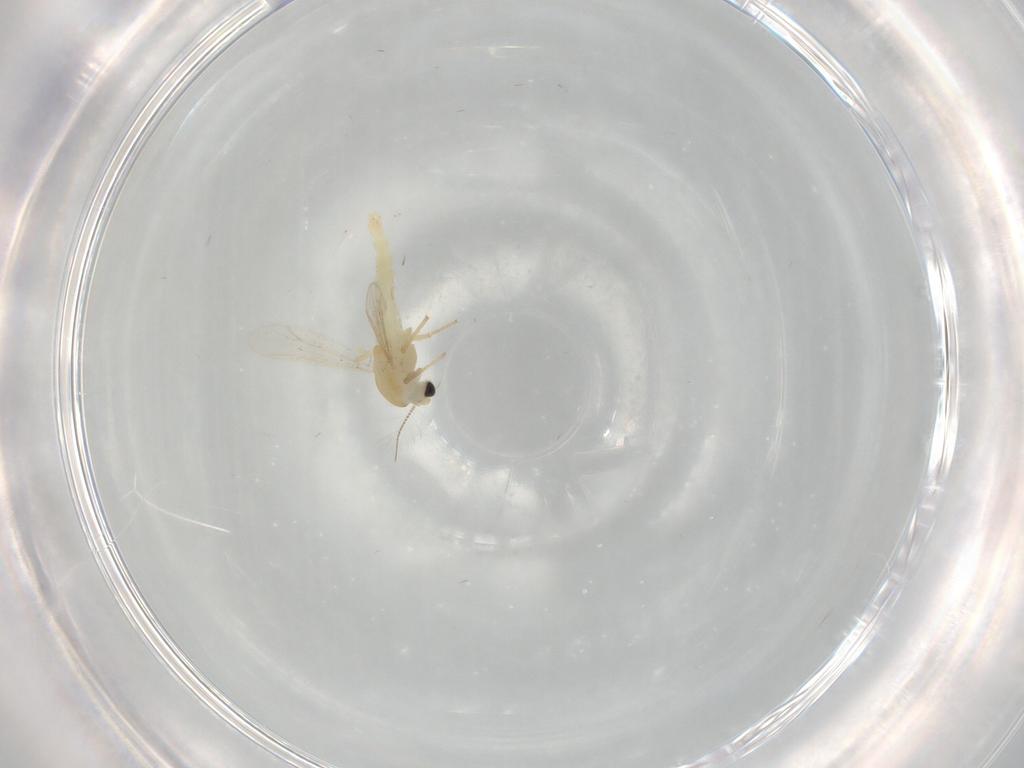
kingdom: Animalia
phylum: Arthropoda
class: Insecta
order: Diptera
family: Chironomidae
